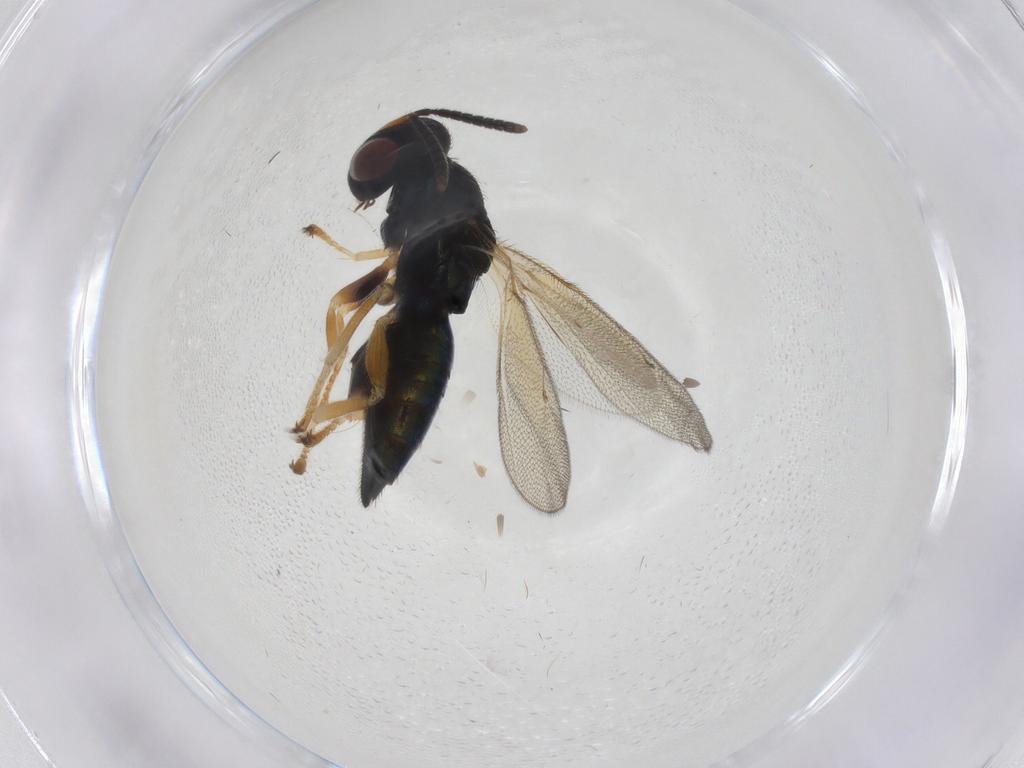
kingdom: Animalia
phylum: Arthropoda
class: Insecta
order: Hymenoptera
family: Pteromalidae
